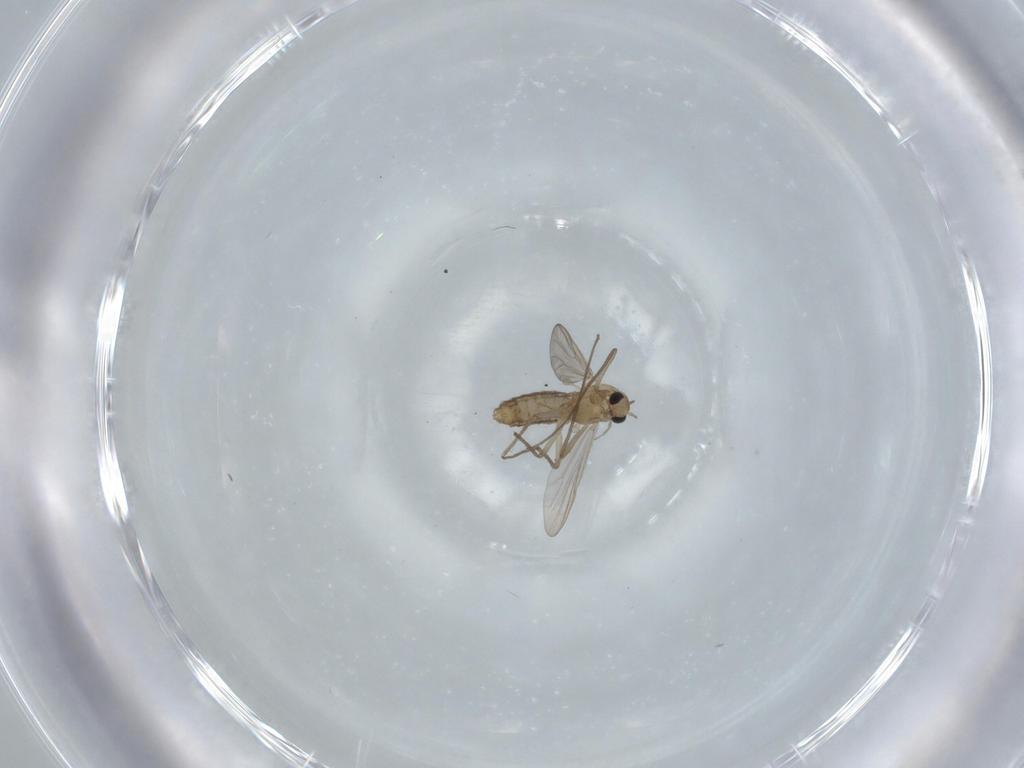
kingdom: Animalia
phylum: Arthropoda
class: Insecta
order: Diptera
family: Chironomidae
